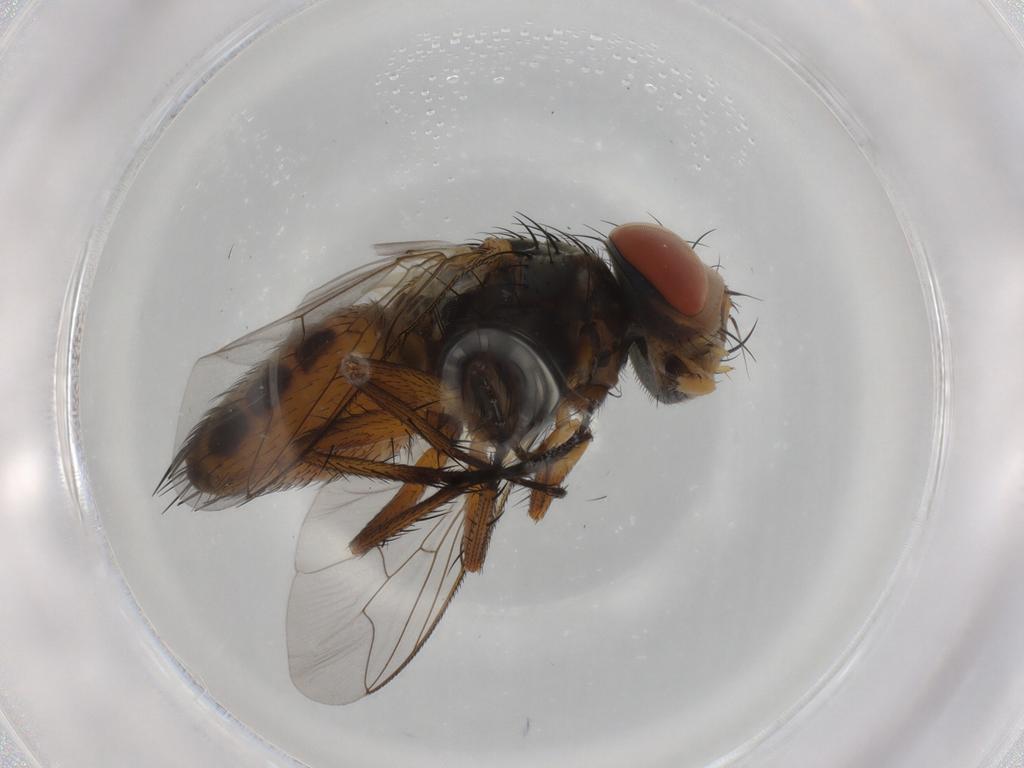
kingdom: Animalia
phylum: Arthropoda
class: Insecta
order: Diptera
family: Sarcophagidae
